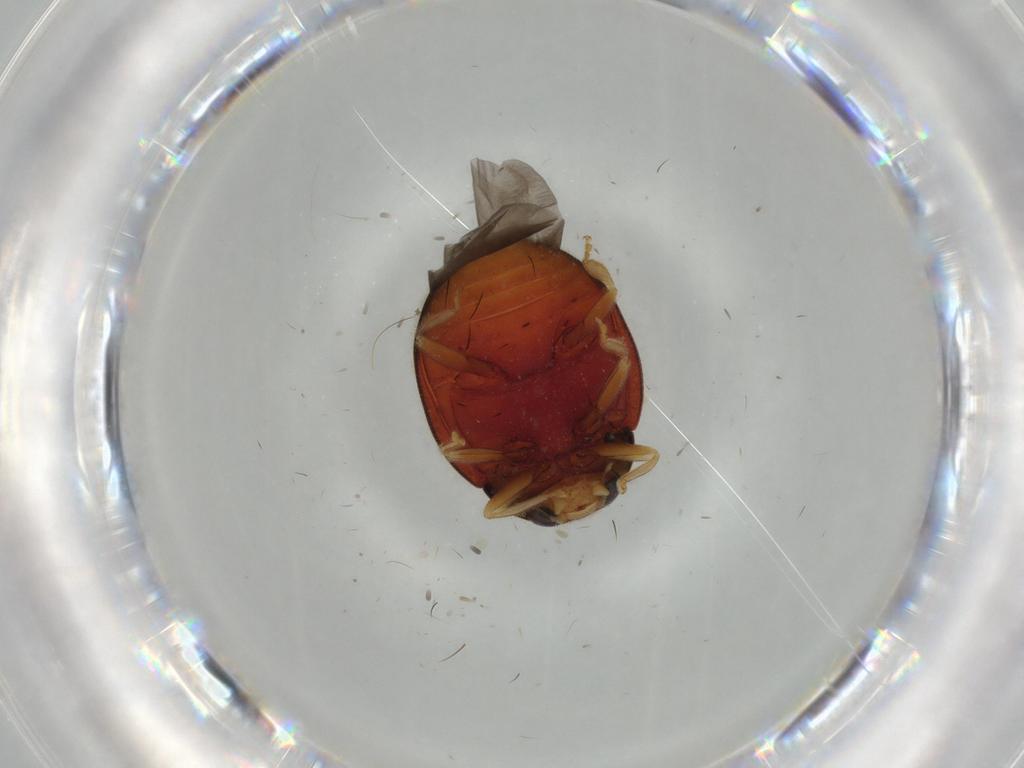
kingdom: Animalia
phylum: Arthropoda
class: Insecta
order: Coleoptera
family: Coccinellidae
